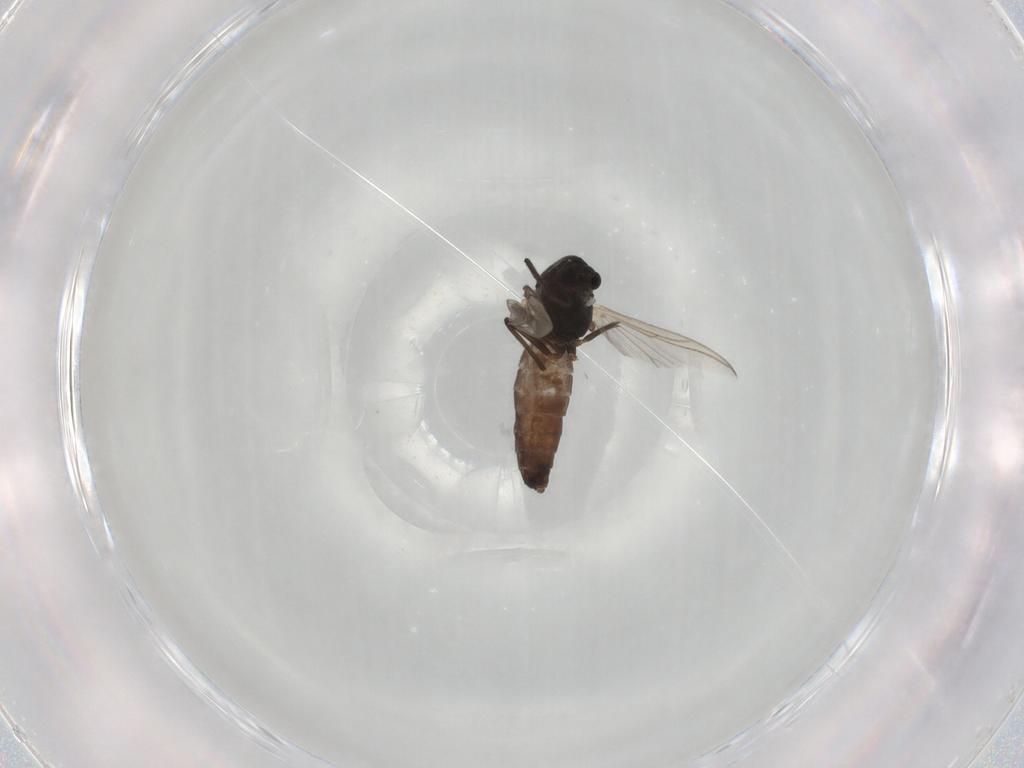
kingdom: Animalia
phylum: Arthropoda
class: Insecta
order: Diptera
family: Chironomidae
